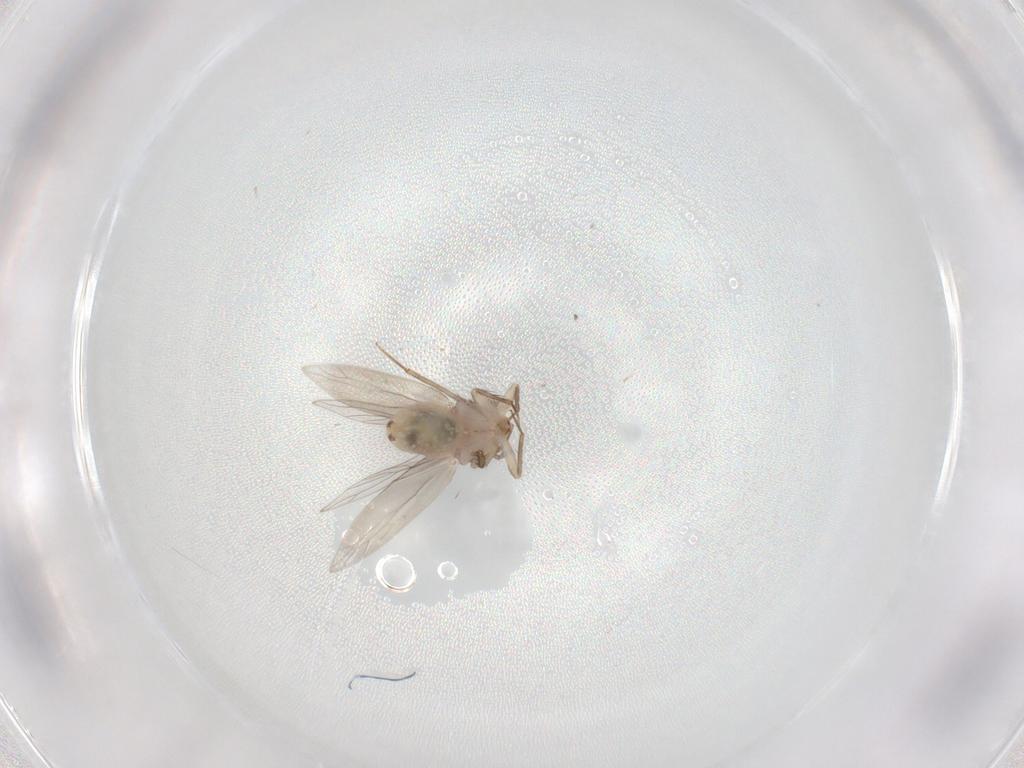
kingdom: Animalia
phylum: Arthropoda
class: Insecta
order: Psocodea
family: Lepidopsocidae
